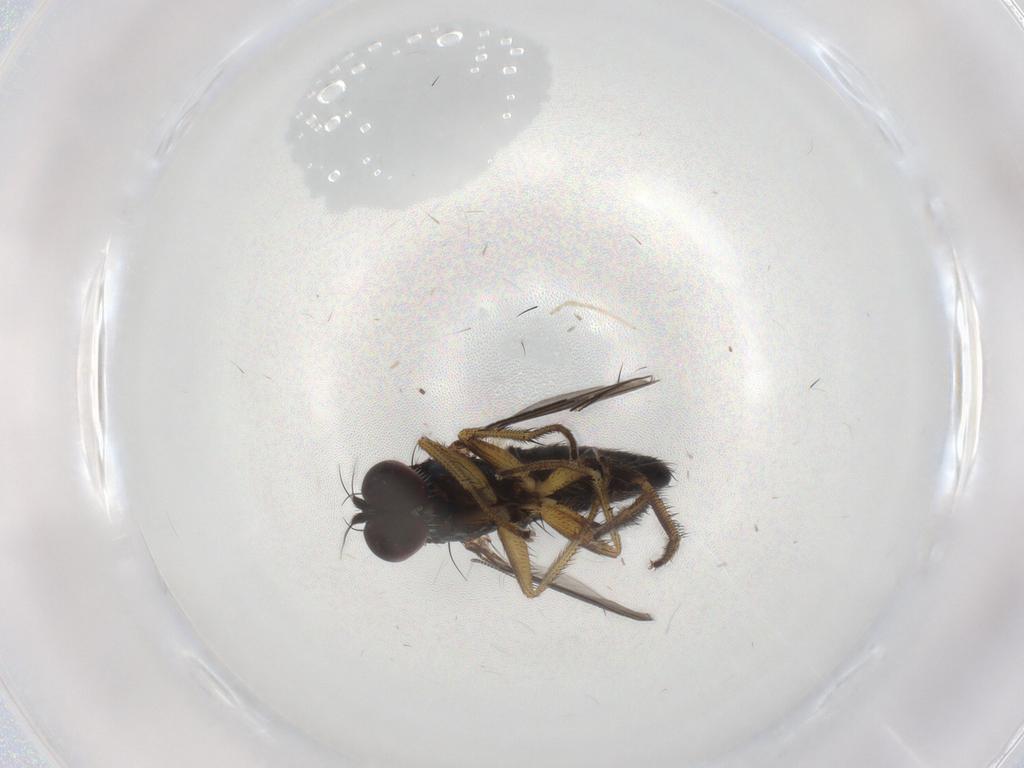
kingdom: Animalia
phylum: Arthropoda
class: Insecta
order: Diptera
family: Dolichopodidae
